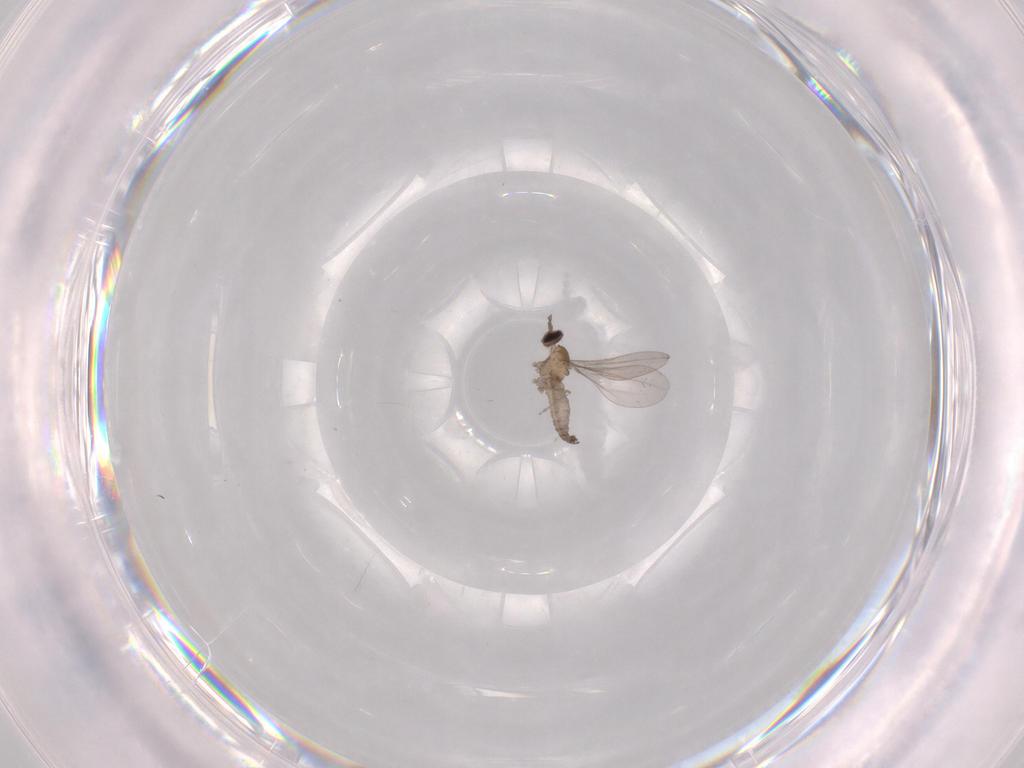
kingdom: Animalia
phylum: Arthropoda
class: Insecta
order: Diptera
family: Cecidomyiidae
